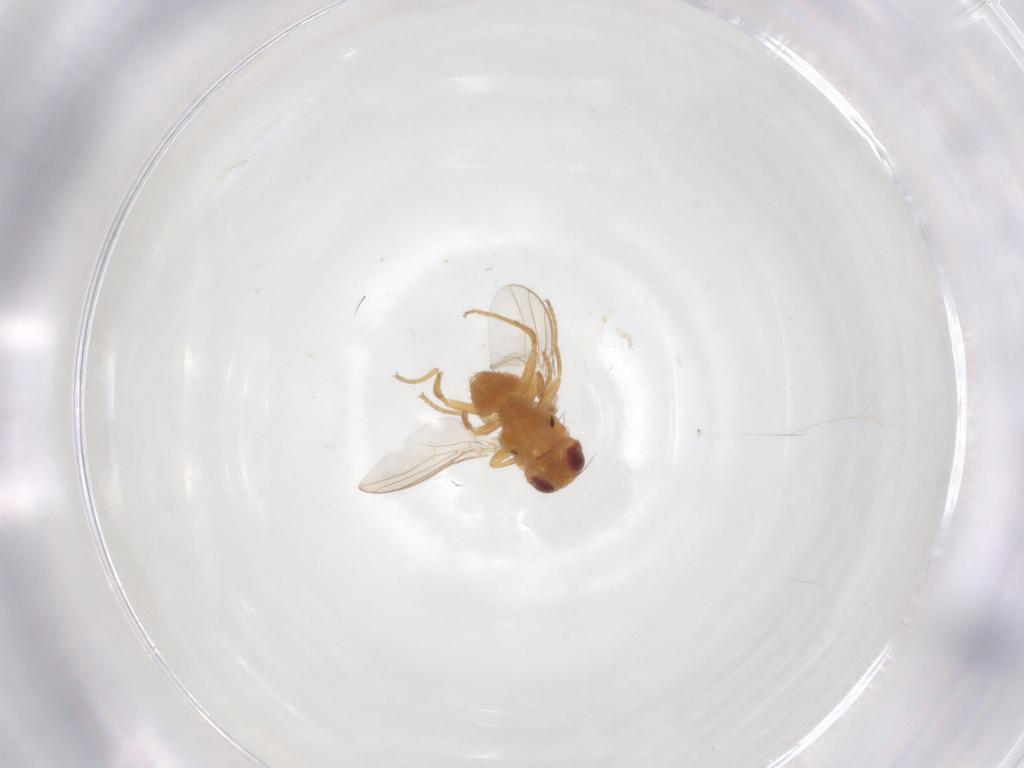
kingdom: Animalia
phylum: Arthropoda
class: Insecta
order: Diptera
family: Chloropidae
